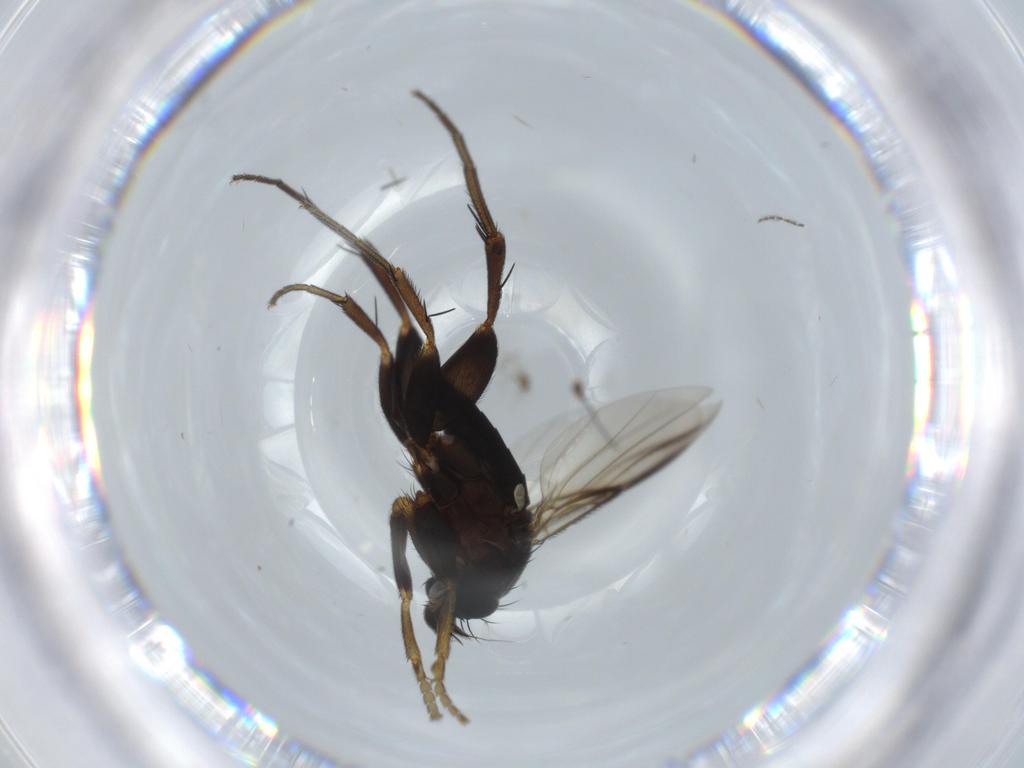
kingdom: Animalia
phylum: Arthropoda
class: Insecta
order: Diptera
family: Phoridae
